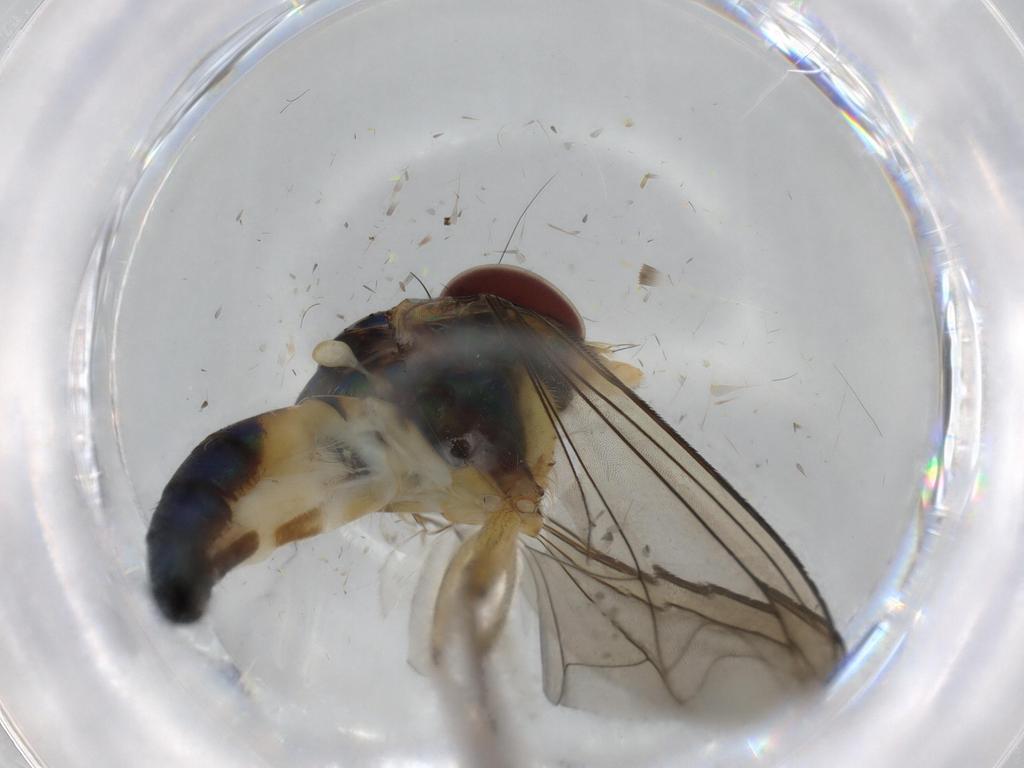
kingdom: Animalia
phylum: Arthropoda
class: Insecta
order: Diptera
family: Dolichopodidae
